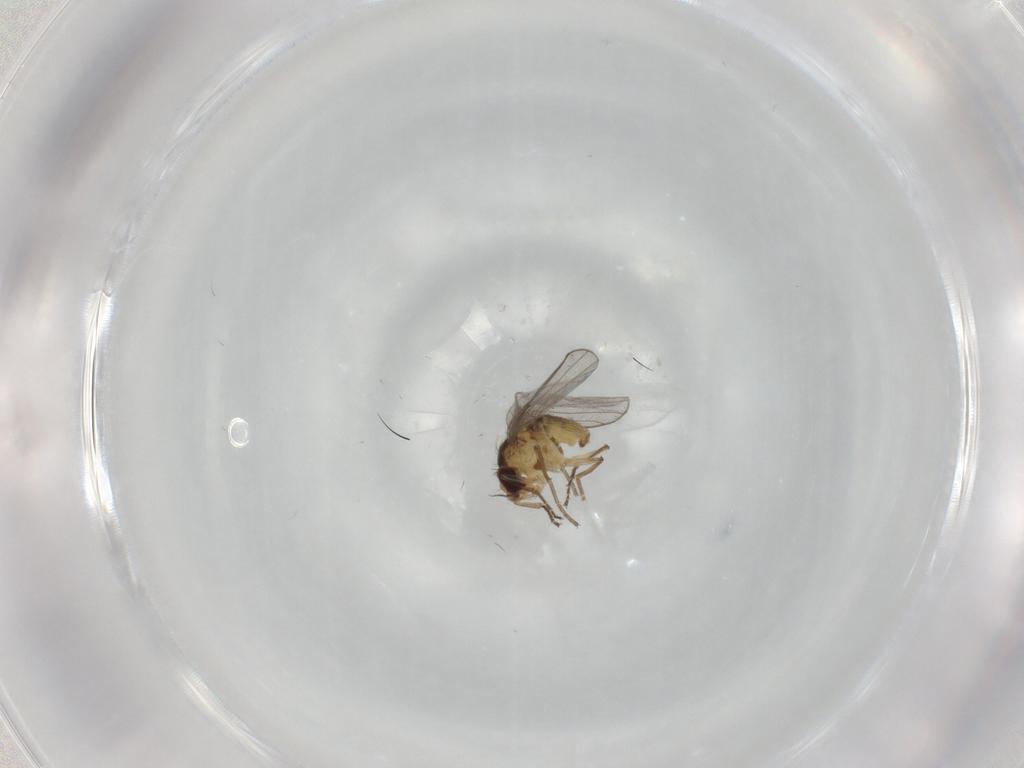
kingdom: Animalia
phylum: Arthropoda
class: Insecta
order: Diptera
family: Agromyzidae
